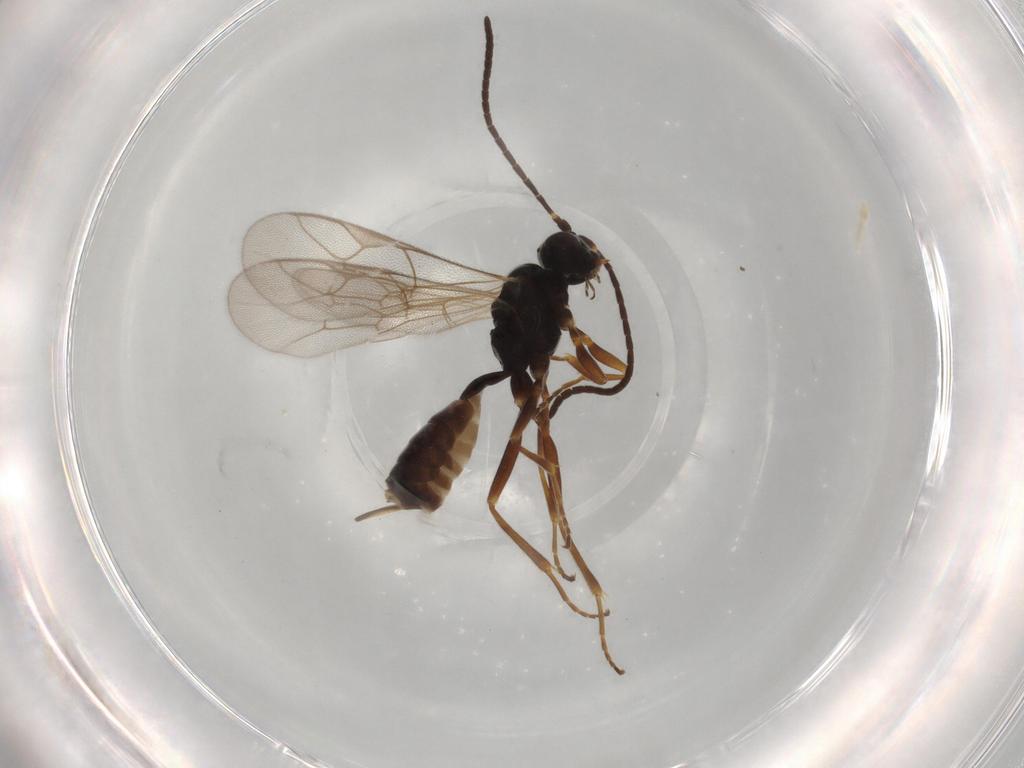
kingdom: Animalia
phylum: Arthropoda
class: Insecta
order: Hymenoptera
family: Ichneumonidae
